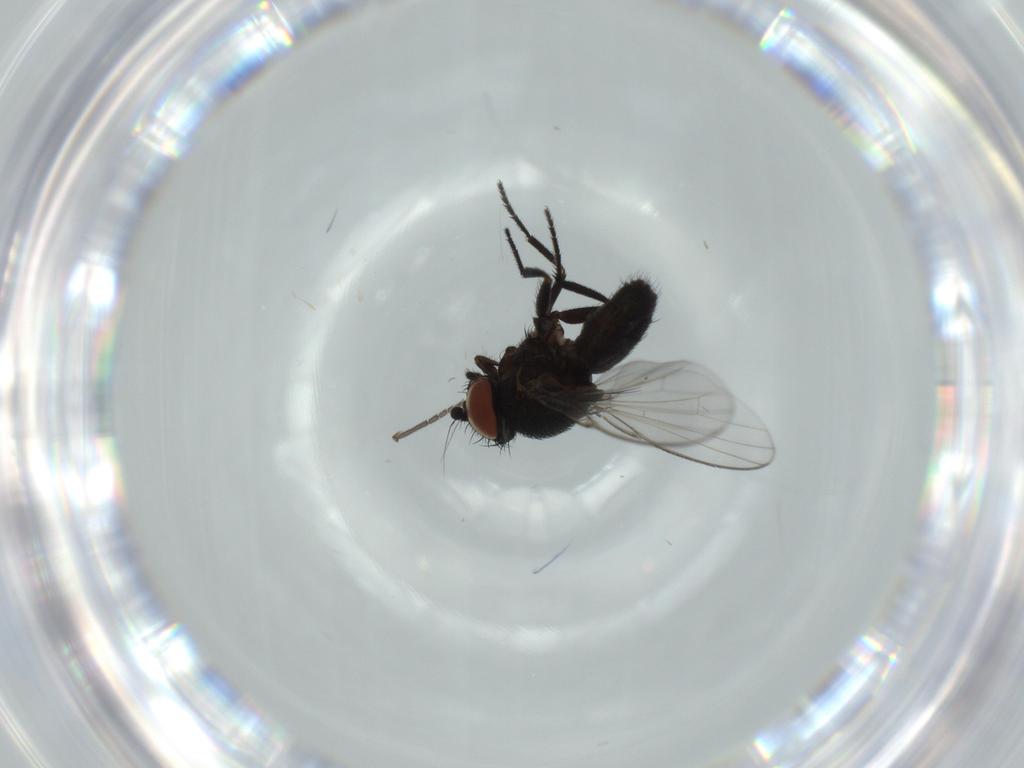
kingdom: Animalia
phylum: Arthropoda
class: Insecta
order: Diptera
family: Milichiidae
